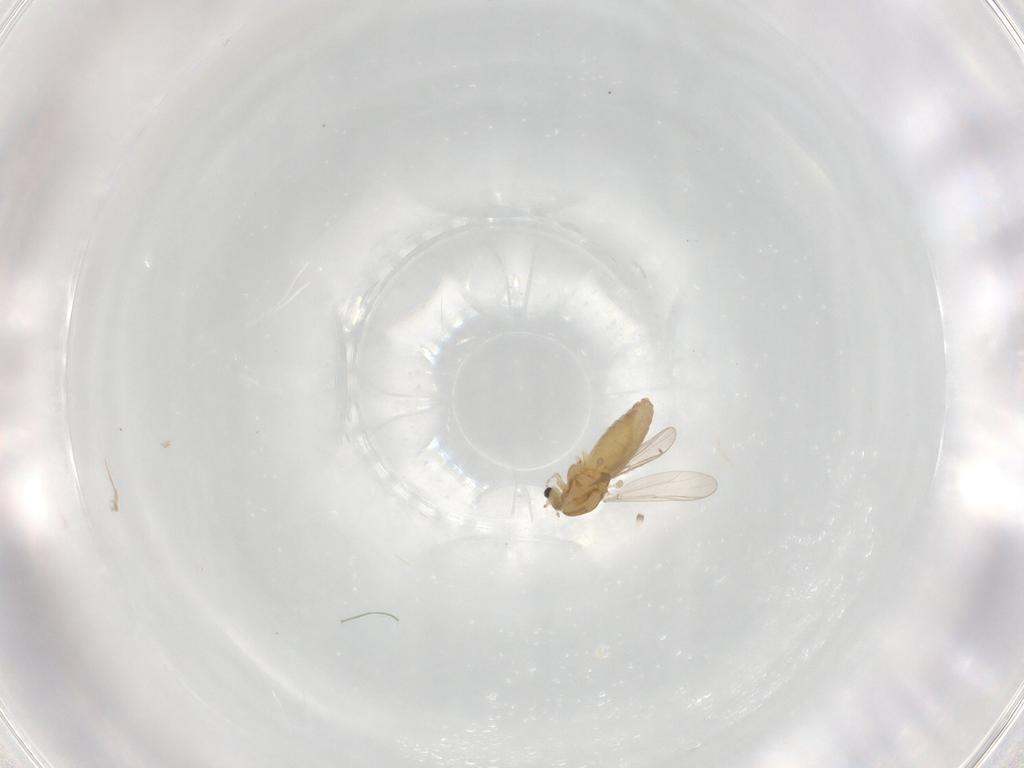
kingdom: Animalia
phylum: Arthropoda
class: Insecta
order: Diptera
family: Chironomidae
